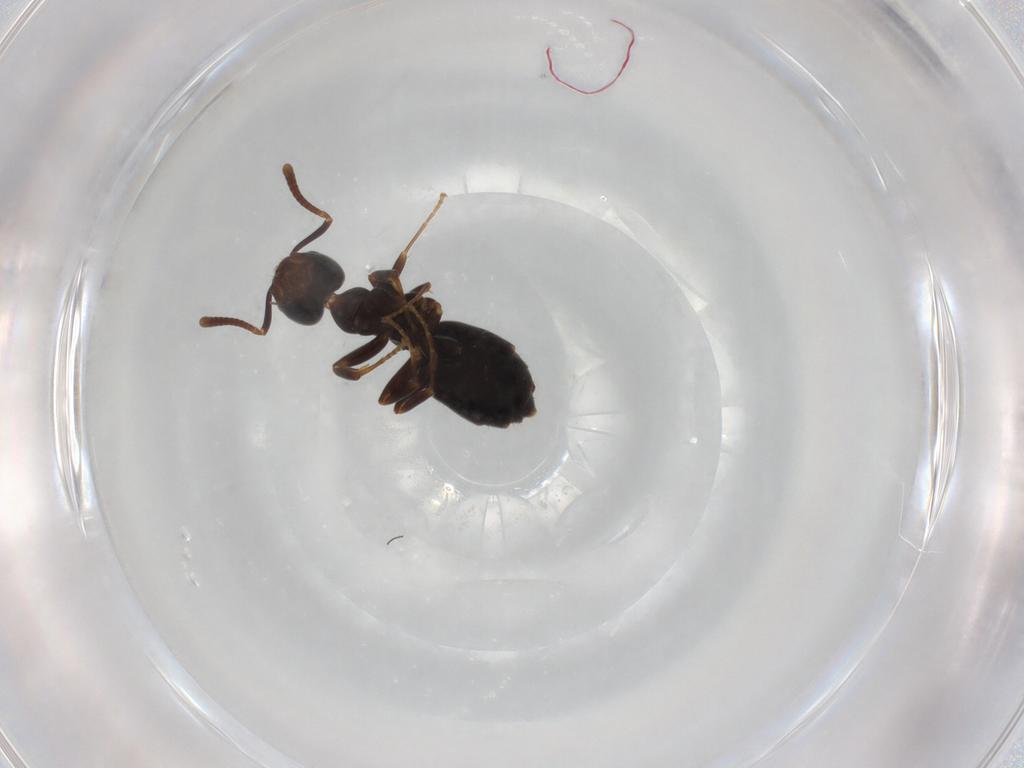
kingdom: Animalia
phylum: Arthropoda
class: Insecta
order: Hymenoptera
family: Formicidae
